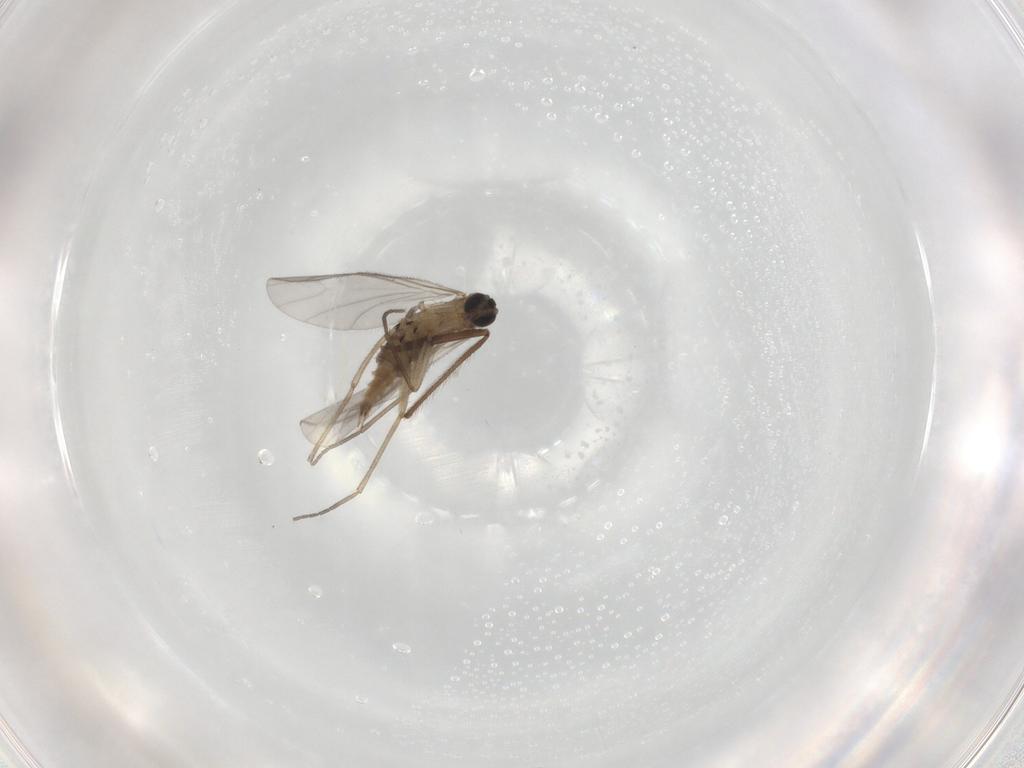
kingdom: Animalia
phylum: Arthropoda
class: Insecta
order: Diptera
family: Sciaridae
